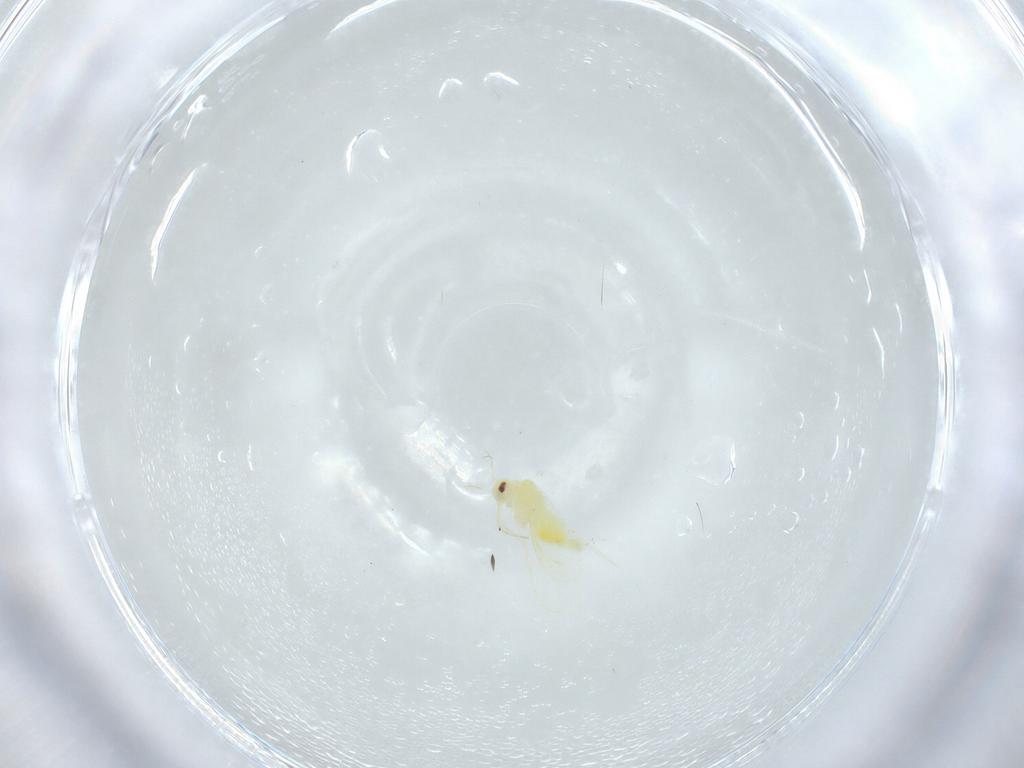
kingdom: Animalia
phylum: Arthropoda
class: Insecta
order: Hemiptera
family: Aleyrodidae
